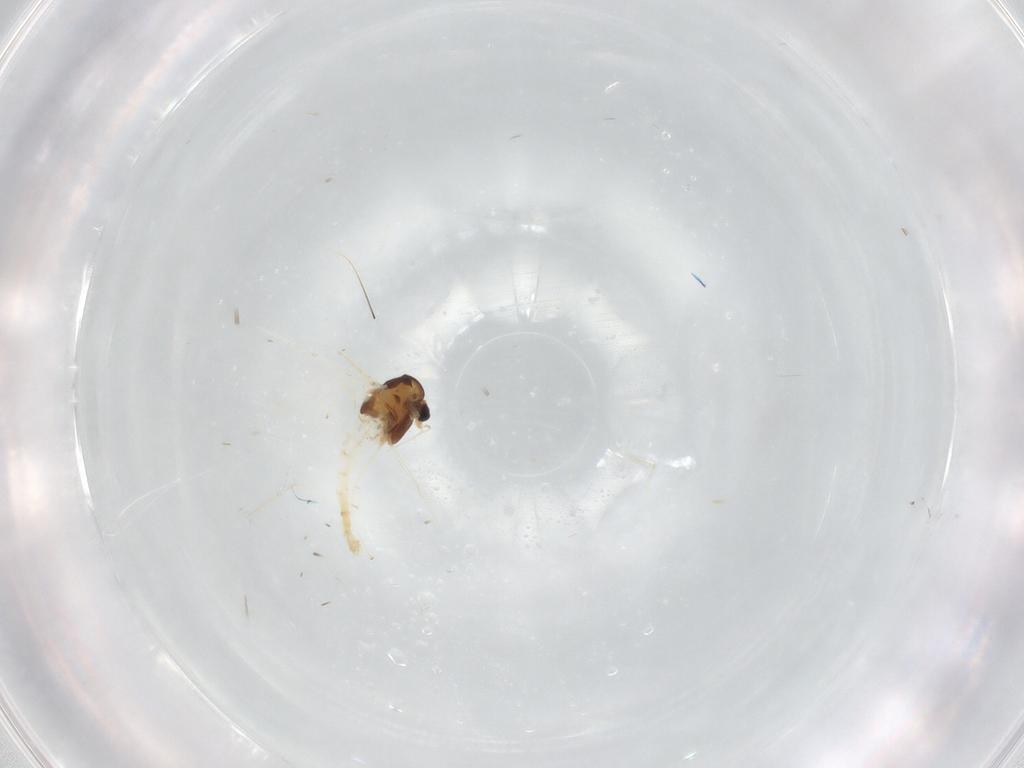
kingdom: Animalia
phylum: Arthropoda
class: Insecta
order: Diptera
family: Chironomidae
